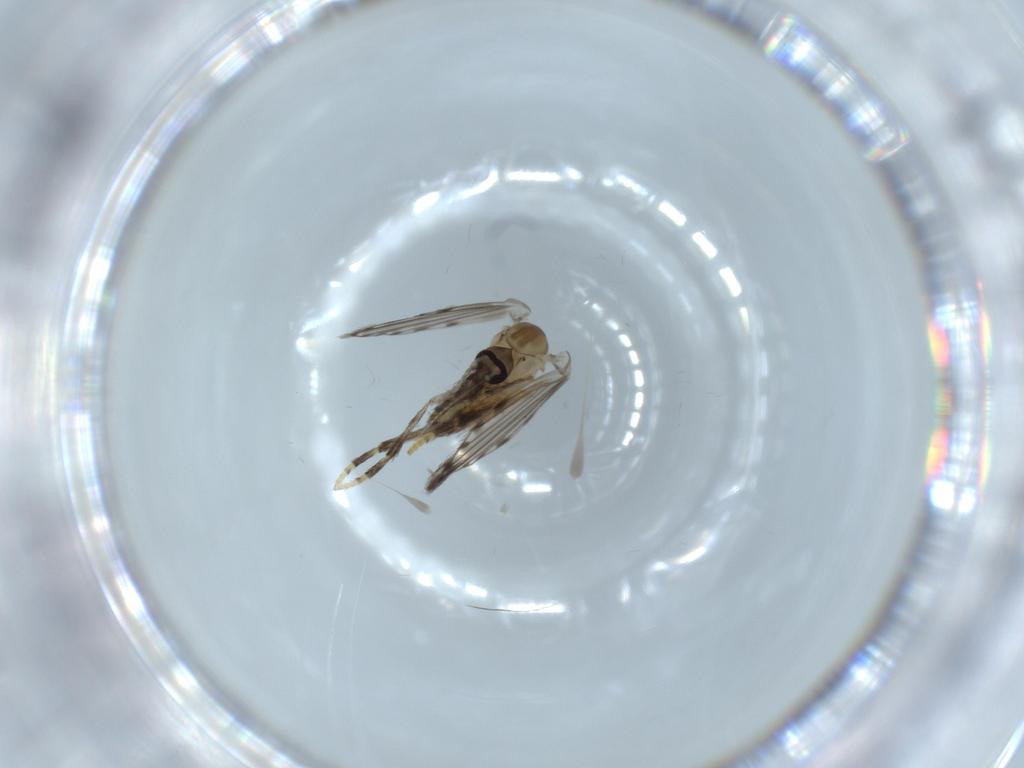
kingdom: Animalia
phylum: Arthropoda
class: Insecta
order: Diptera
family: Psychodidae
